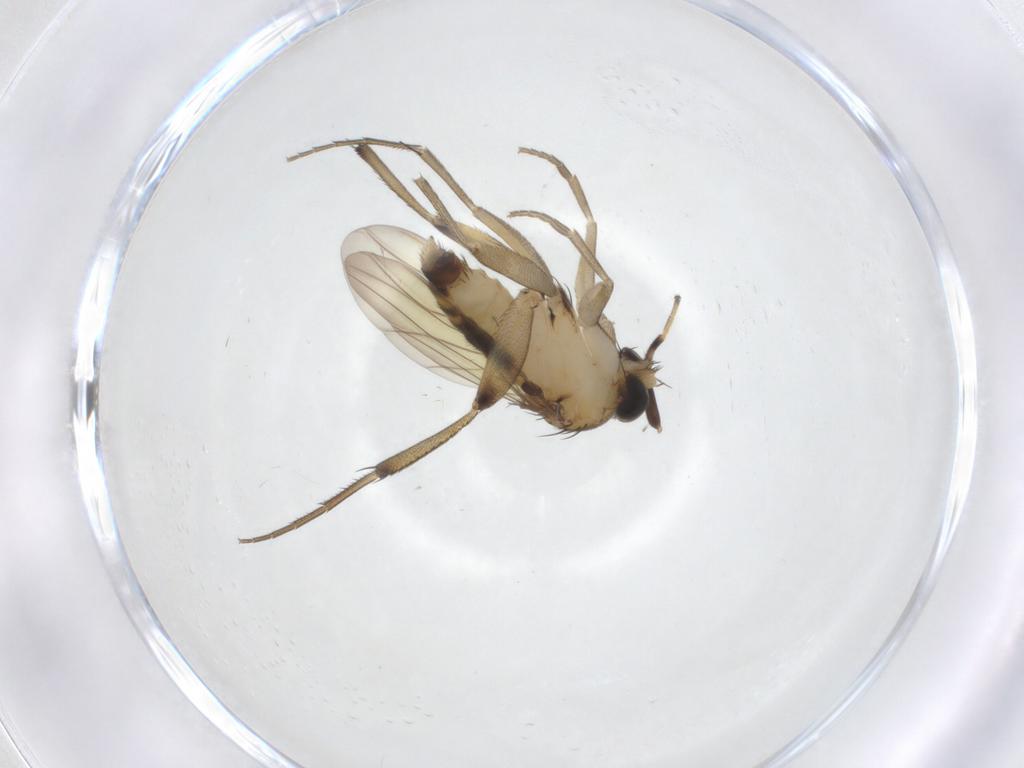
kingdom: Animalia
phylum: Arthropoda
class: Insecta
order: Diptera
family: Phoridae
